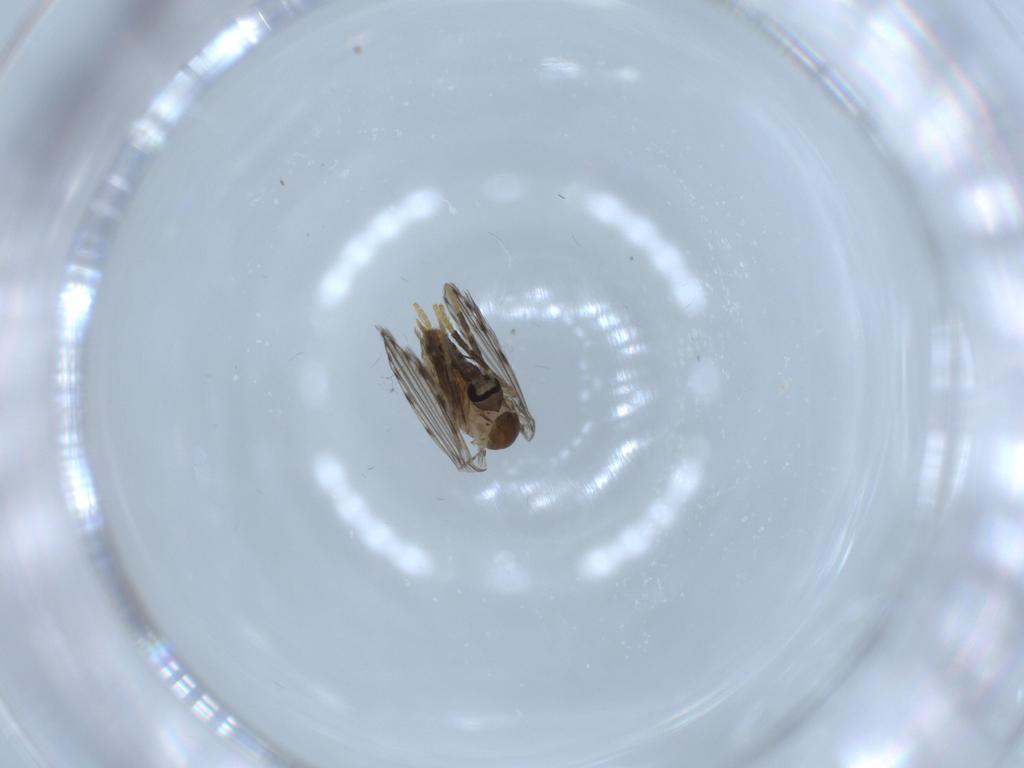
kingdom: Animalia
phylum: Arthropoda
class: Insecta
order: Diptera
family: Psychodidae
